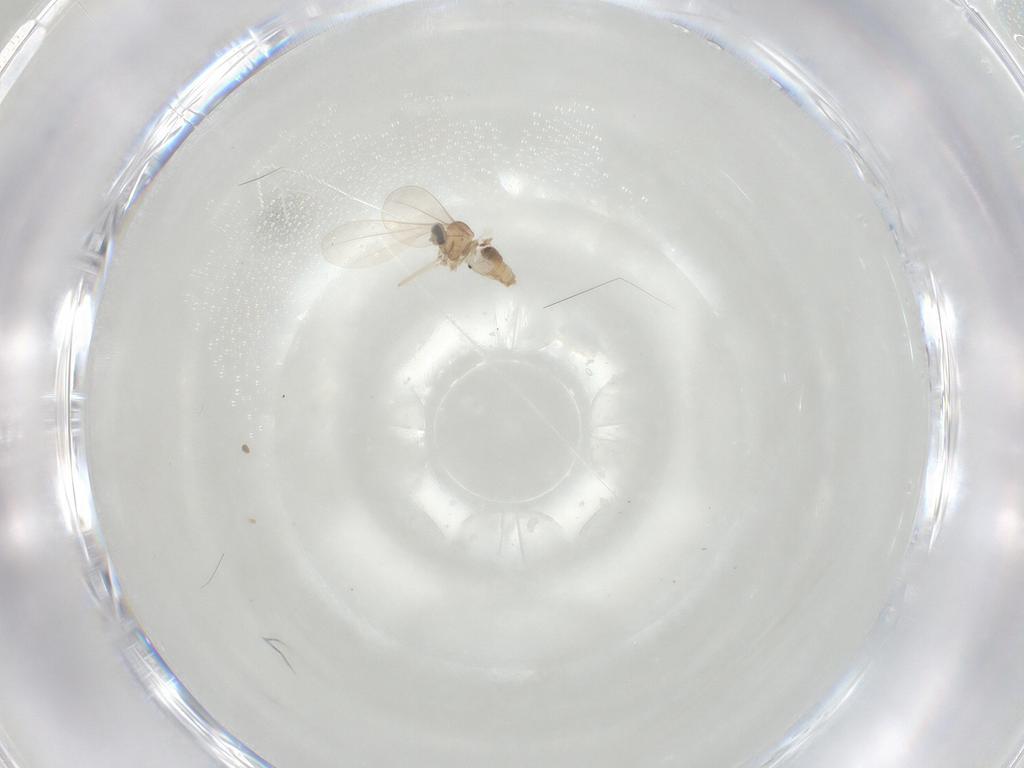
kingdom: Animalia
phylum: Arthropoda
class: Insecta
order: Diptera
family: Cecidomyiidae
